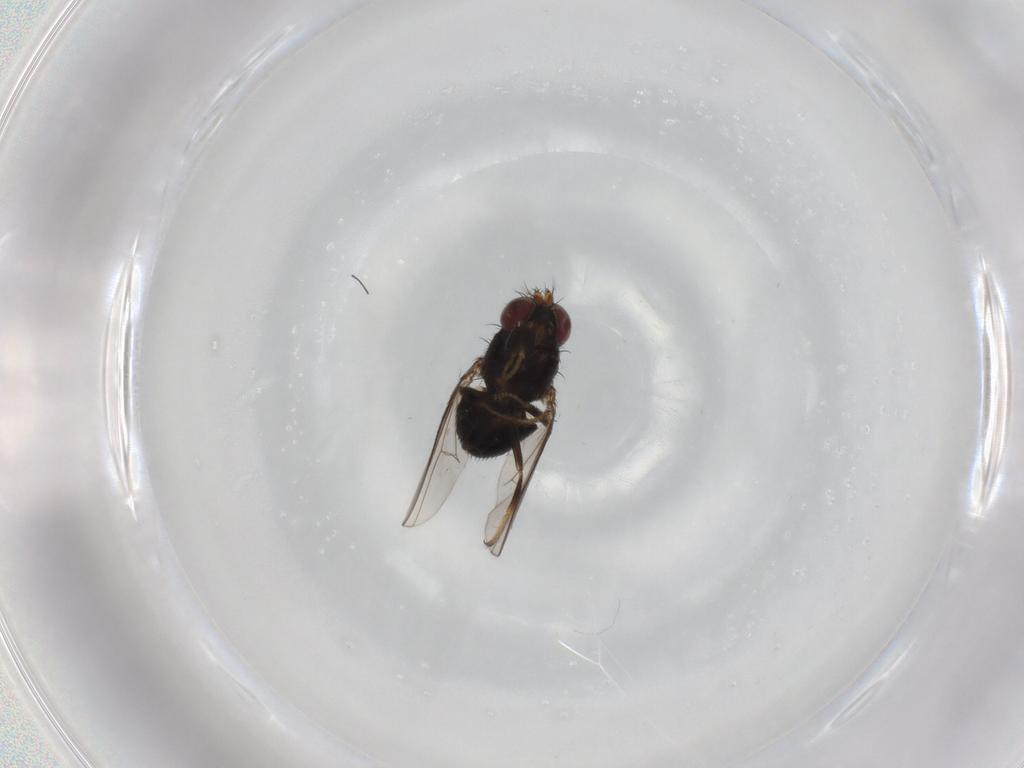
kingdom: Animalia
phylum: Arthropoda
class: Insecta
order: Diptera
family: Ephydridae
